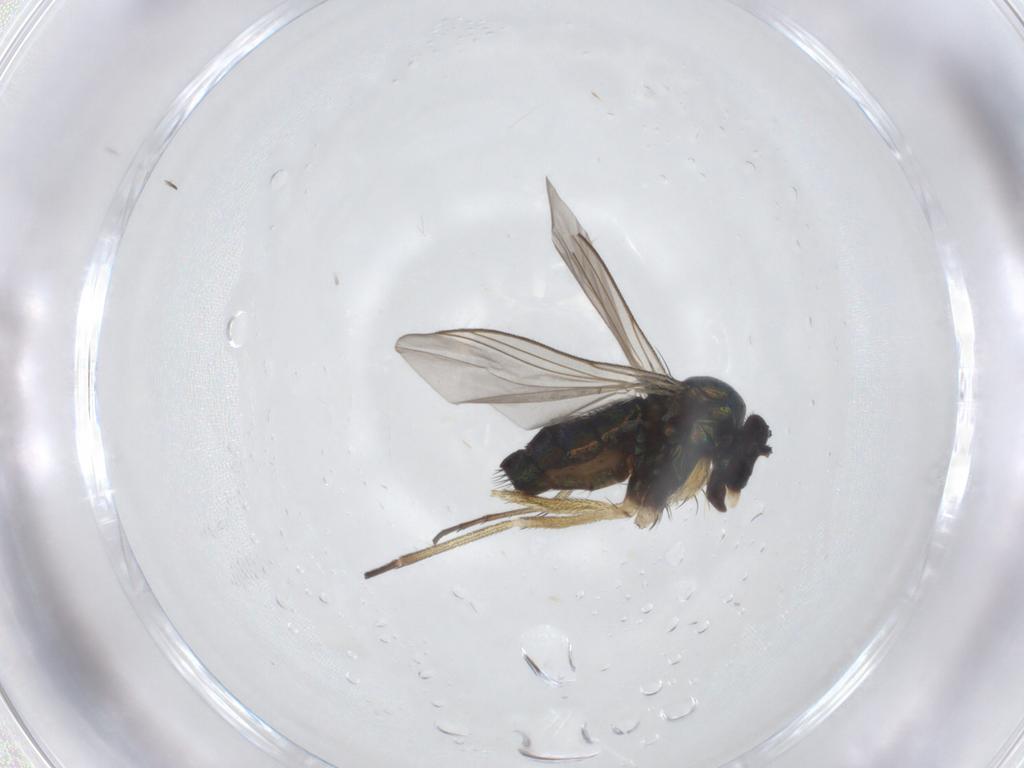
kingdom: Animalia
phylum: Arthropoda
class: Insecta
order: Diptera
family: Dolichopodidae
